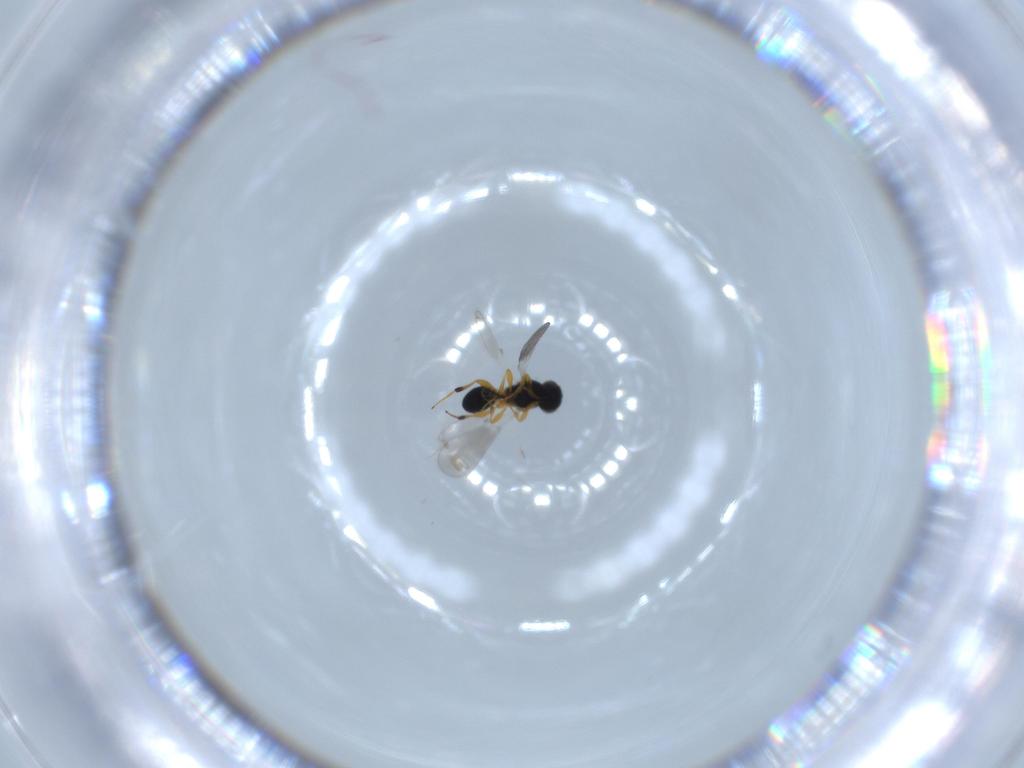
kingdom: Animalia
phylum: Arthropoda
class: Insecta
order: Hymenoptera
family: Platygastridae
